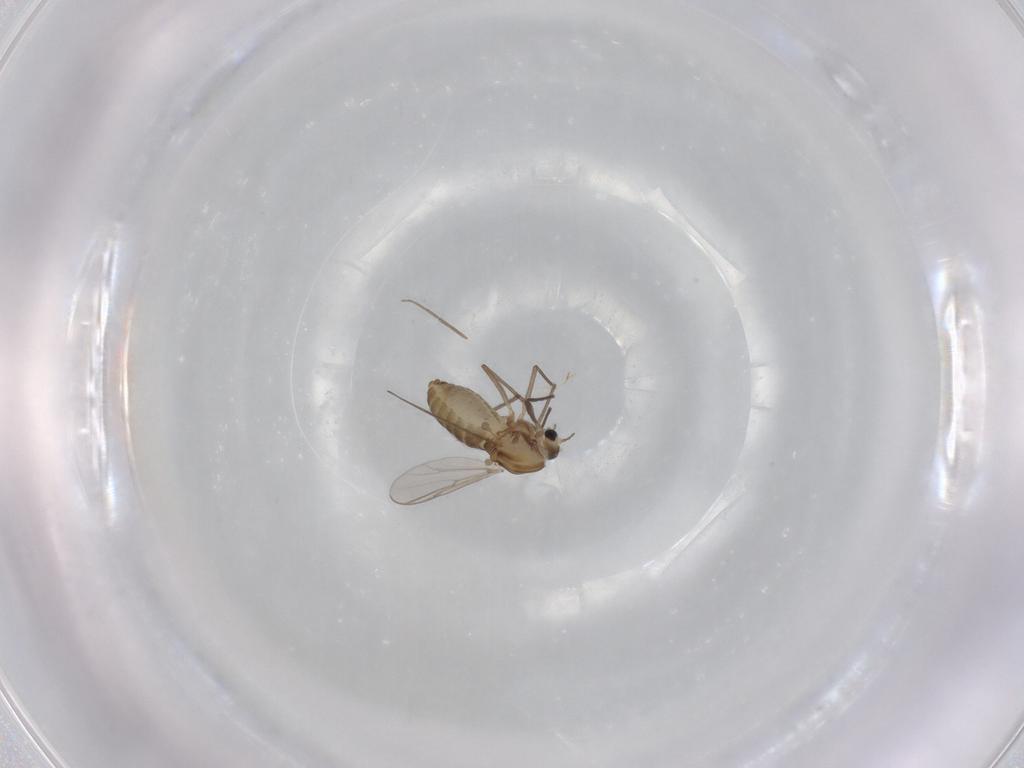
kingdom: Animalia
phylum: Arthropoda
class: Insecta
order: Diptera
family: Chironomidae
